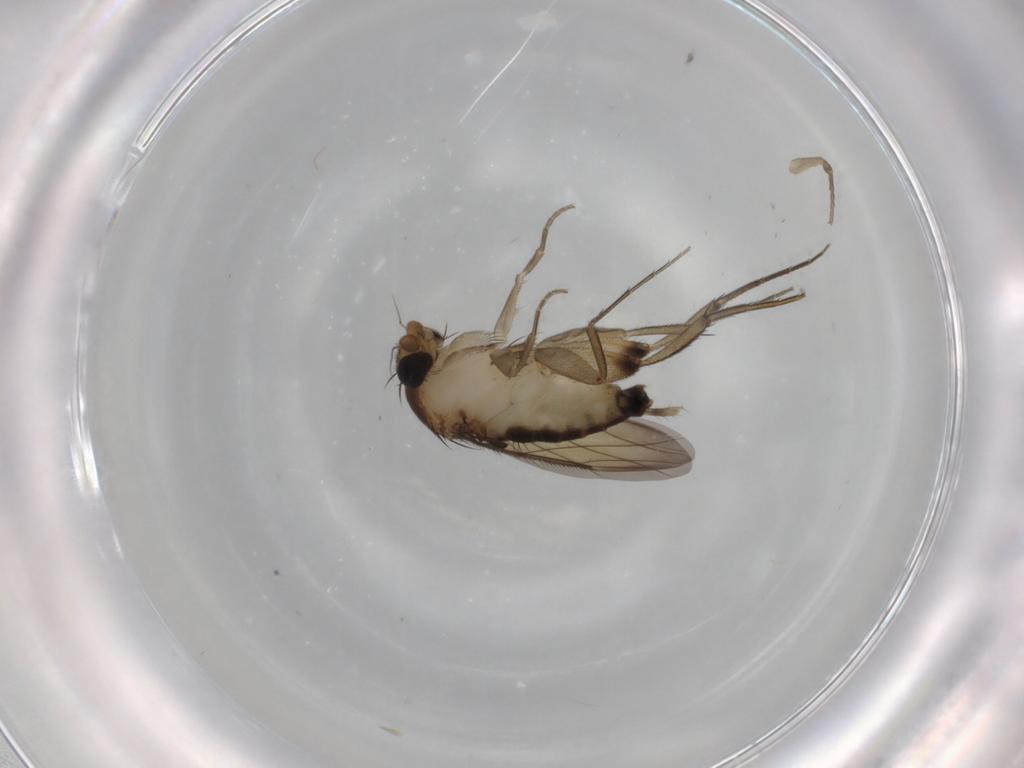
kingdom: Animalia
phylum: Arthropoda
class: Insecta
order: Diptera
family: Phoridae
